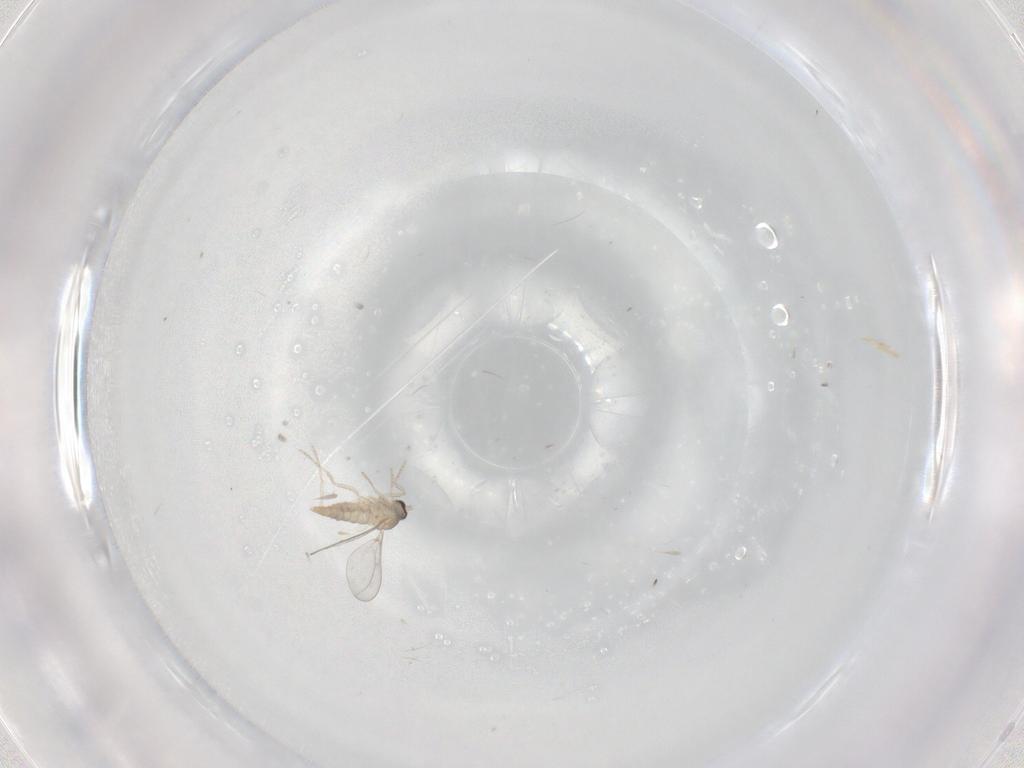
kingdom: Animalia
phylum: Arthropoda
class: Insecta
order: Diptera
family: Cecidomyiidae
